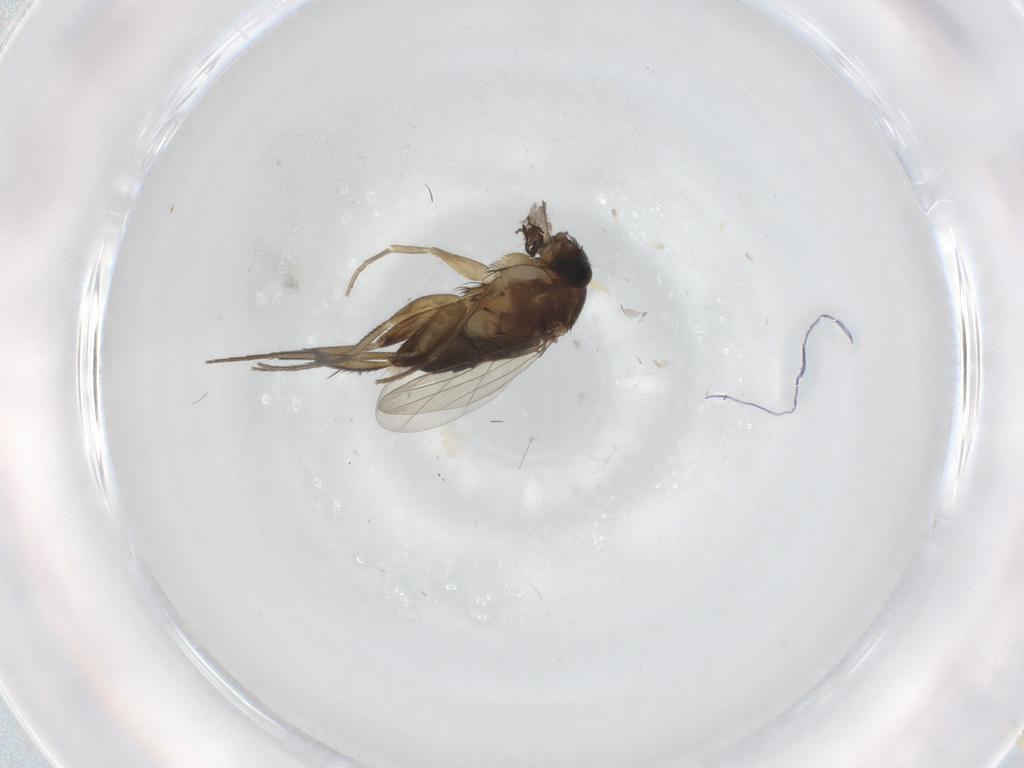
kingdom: Animalia
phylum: Arthropoda
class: Insecta
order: Diptera
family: Phoridae
